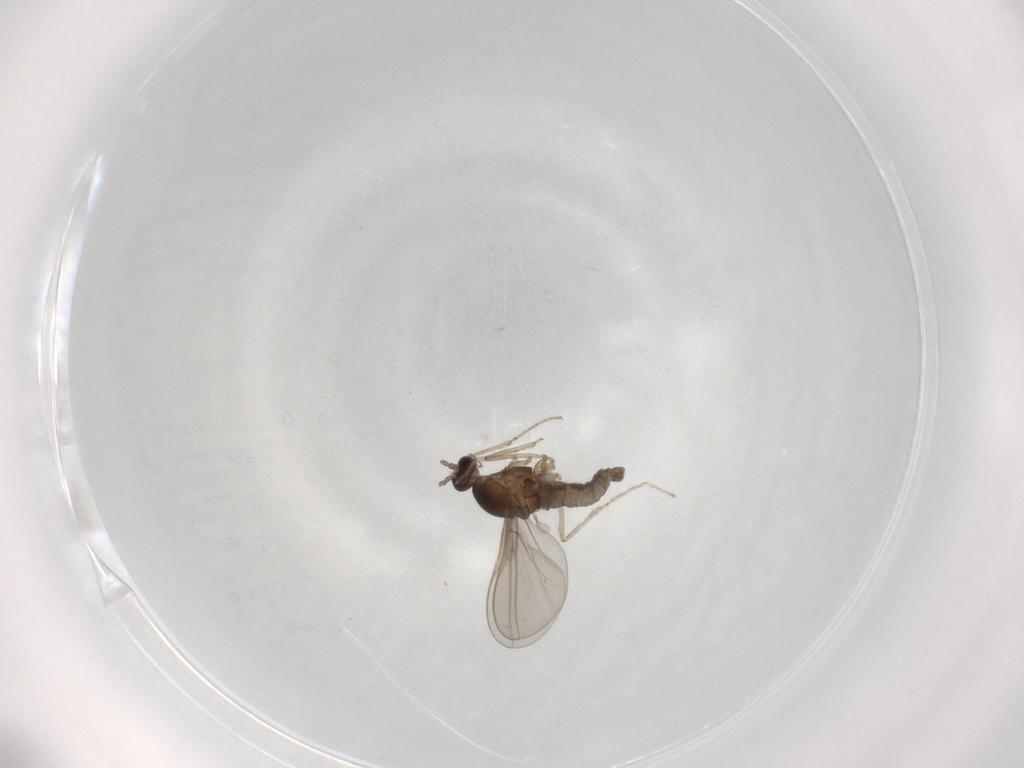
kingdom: Animalia
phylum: Arthropoda
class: Insecta
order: Diptera
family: Cecidomyiidae
